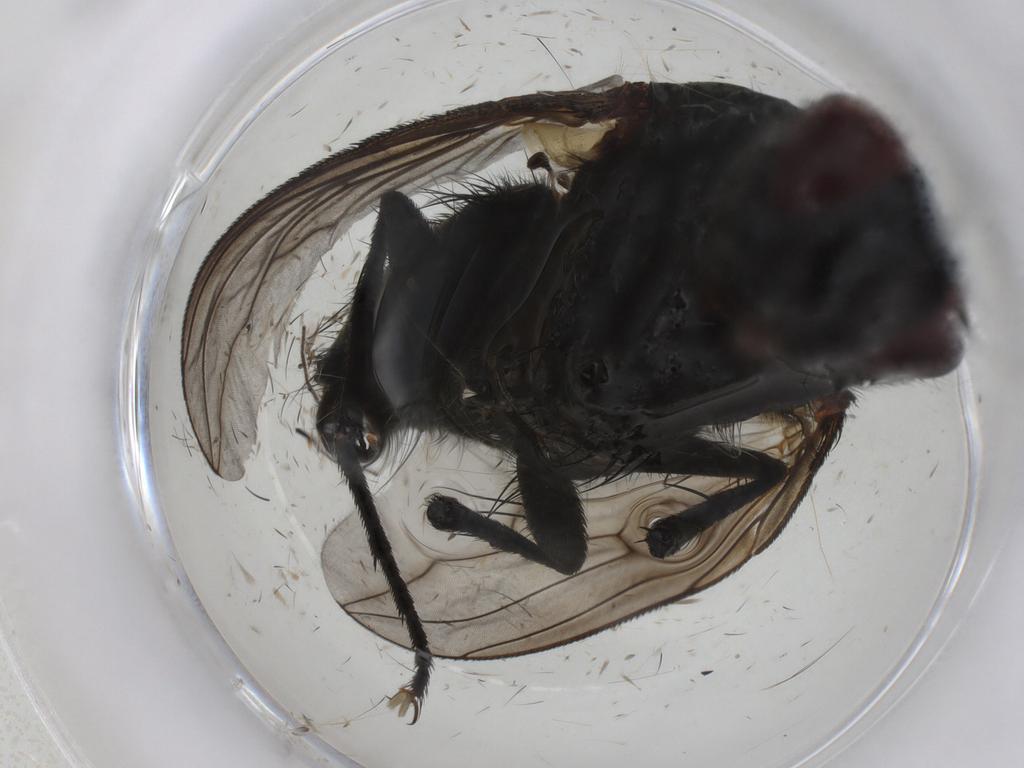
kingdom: Animalia
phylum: Arthropoda
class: Insecta
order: Diptera
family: Tachinidae
